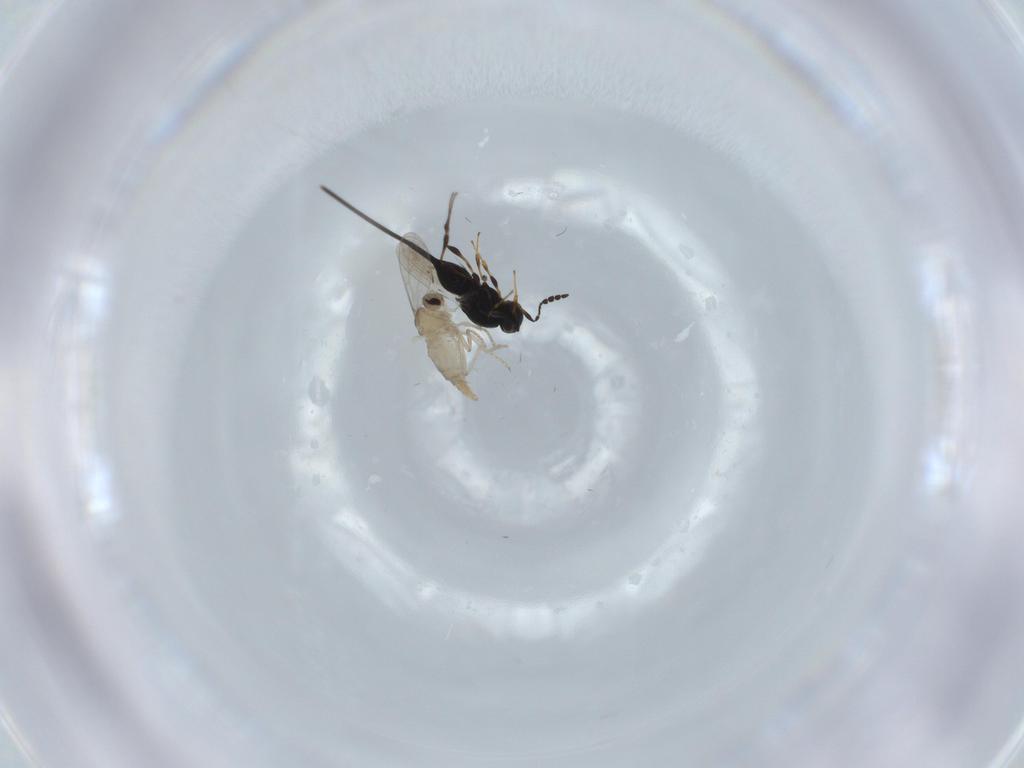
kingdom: Animalia
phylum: Arthropoda
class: Insecta
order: Diptera
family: Cecidomyiidae
